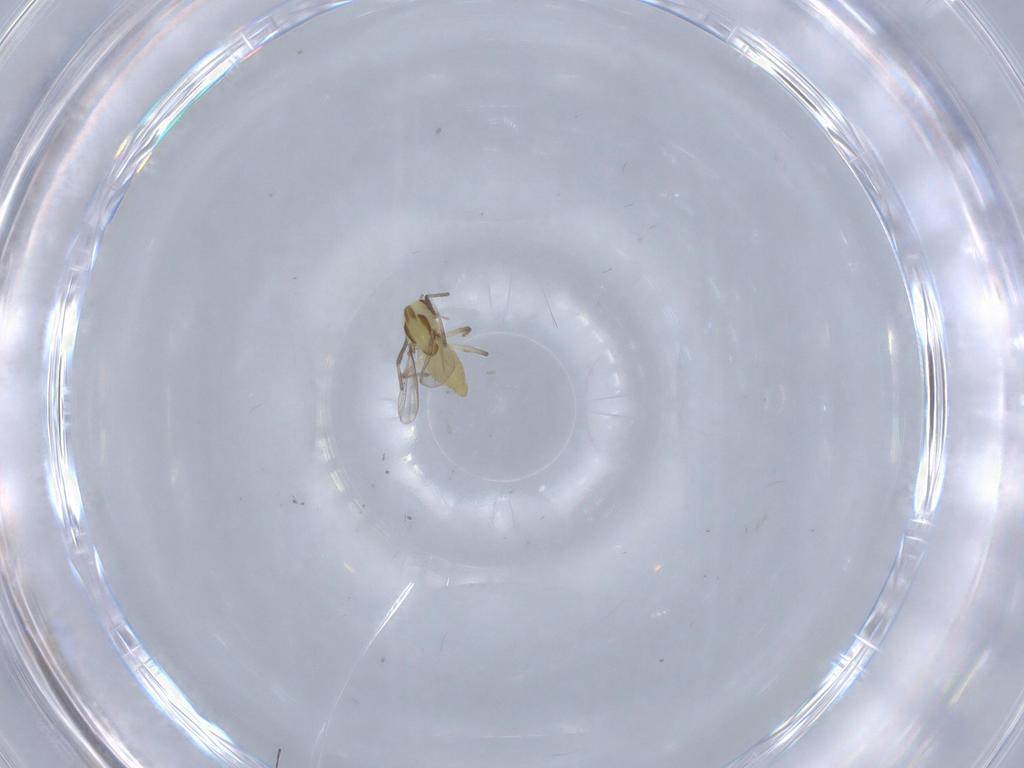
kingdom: Animalia
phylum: Arthropoda
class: Insecta
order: Diptera
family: Chironomidae
